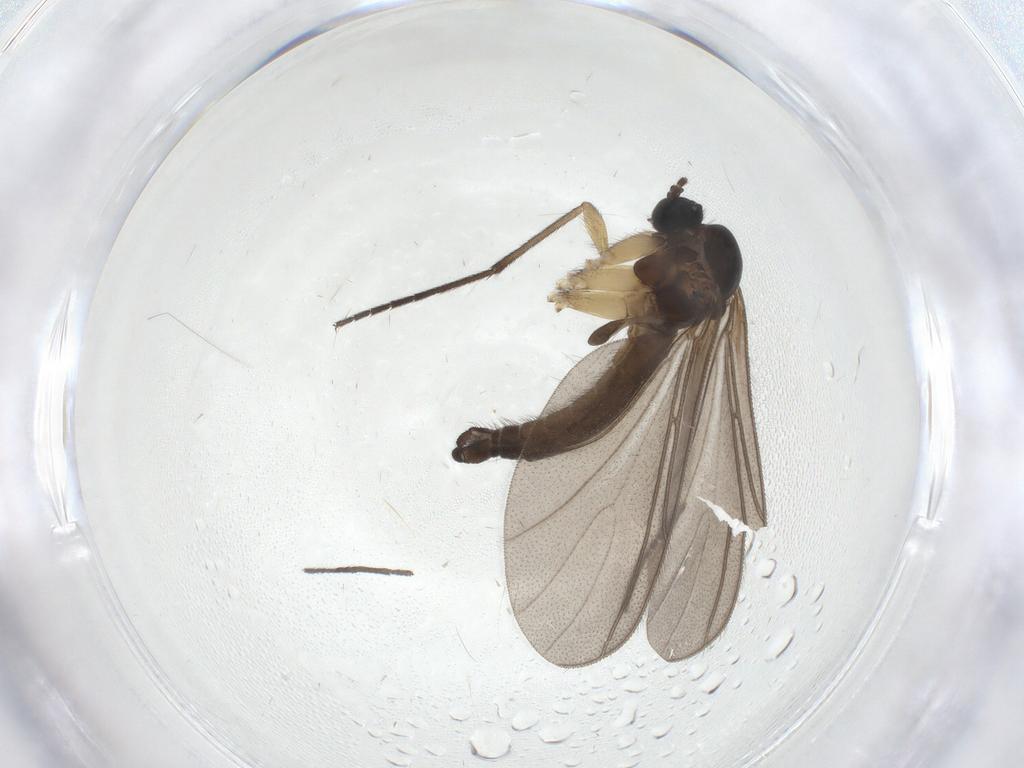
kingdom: Animalia
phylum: Arthropoda
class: Insecta
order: Diptera
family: Sciaridae
